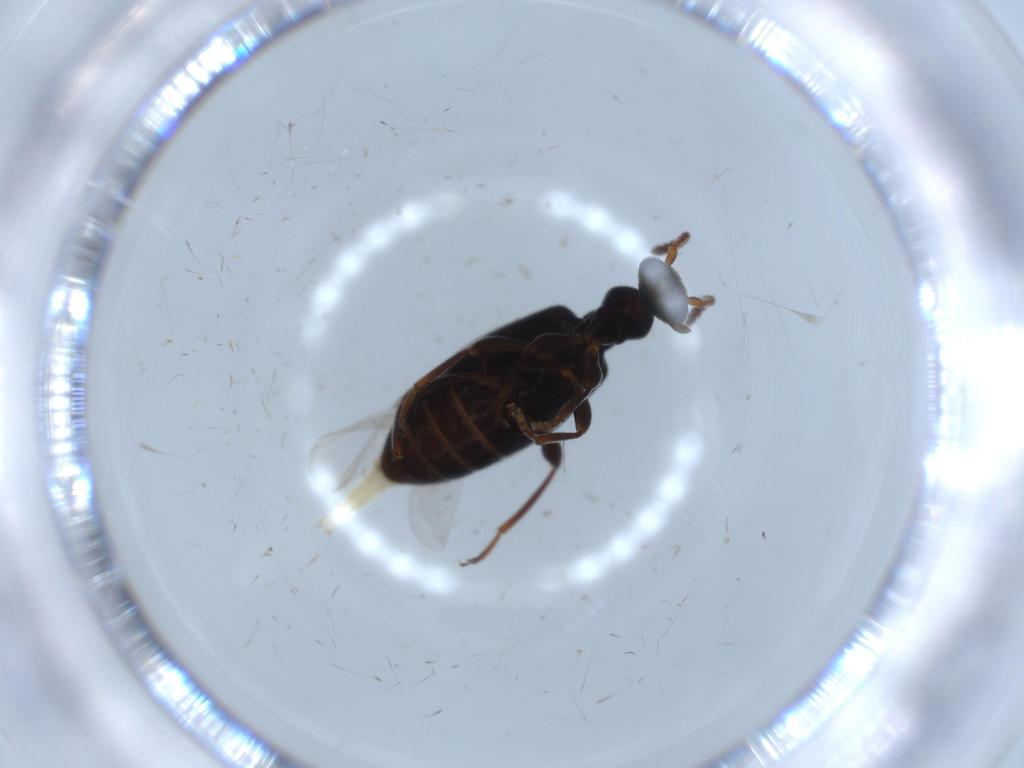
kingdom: Animalia
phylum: Arthropoda
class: Insecta
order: Coleoptera
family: Anthicidae
